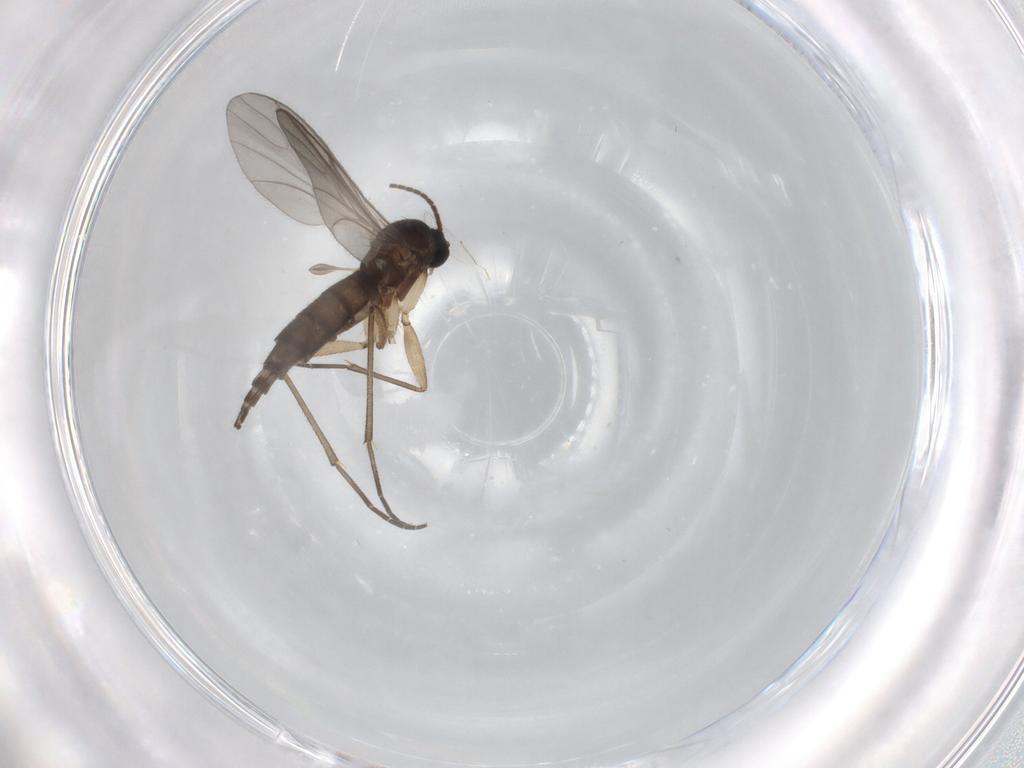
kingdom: Animalia
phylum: Arthropoda
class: Insecta
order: Diptera
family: Sciaridae
